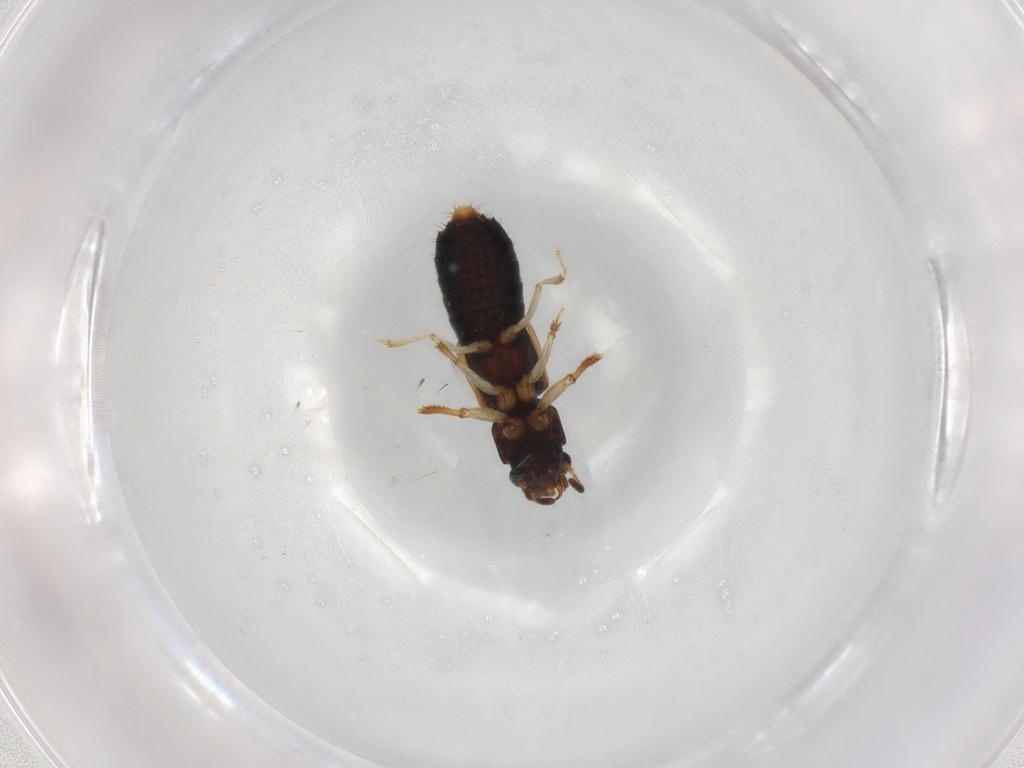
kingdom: Animalia
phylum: Arthropoda
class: Insecta
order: Coleoptera
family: Staphylinidae
